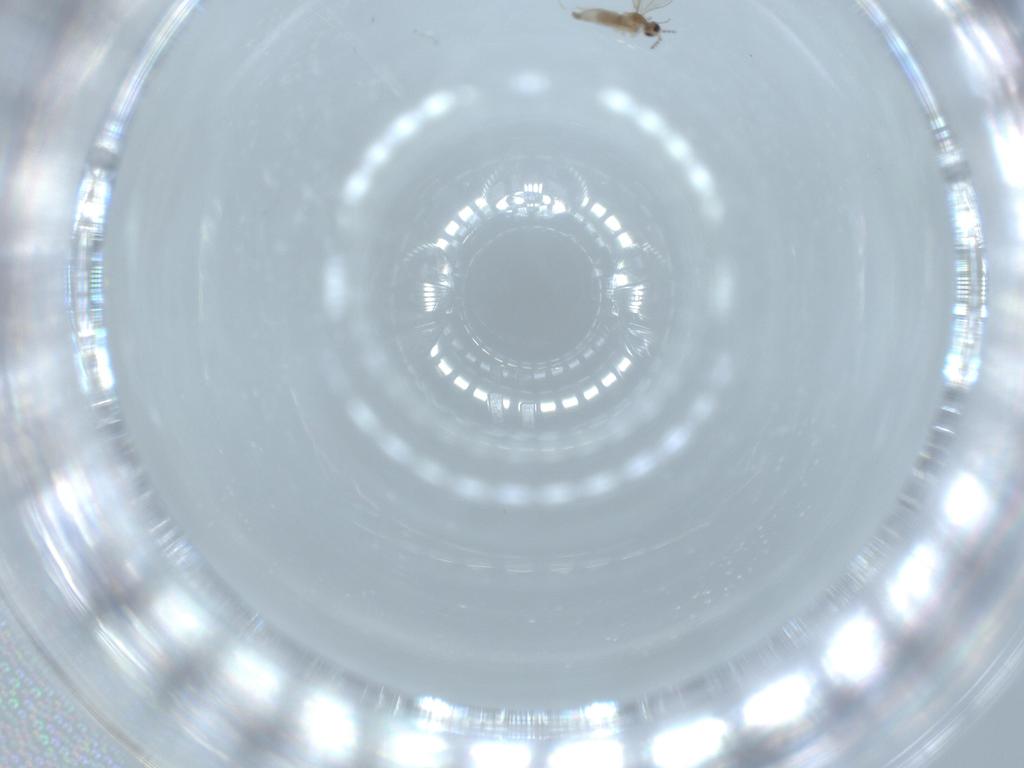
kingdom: Animalia
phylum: Arthropoda
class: Insecta
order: Diptera
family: Cecidomyiidae
